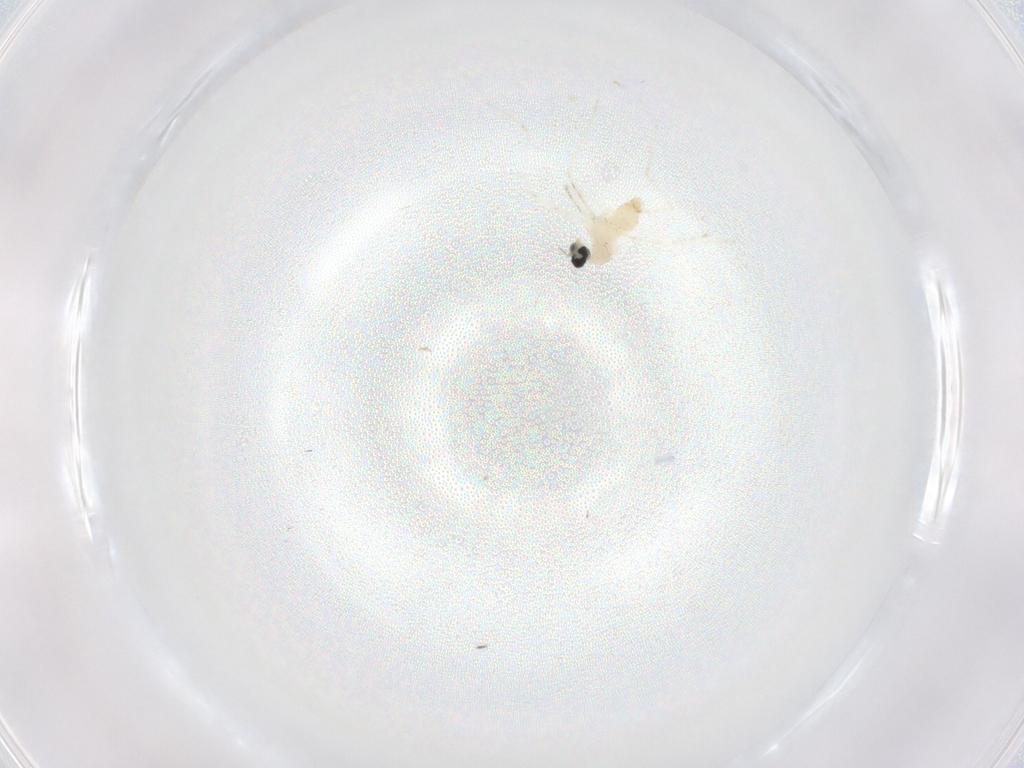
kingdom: Animalia
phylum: Arthropoda
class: Insecta
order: Diptera
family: Cecidomyiidae
